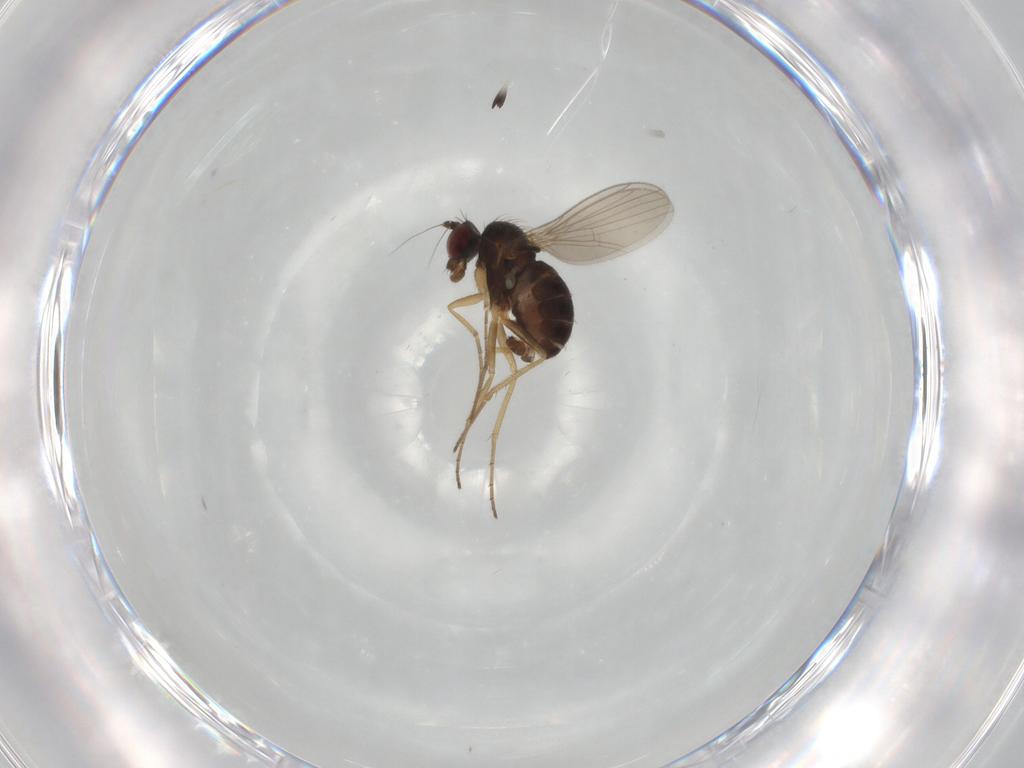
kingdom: Animalia
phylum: Arthropoda
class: Insecta
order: Diptera
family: Dolichopodidae
